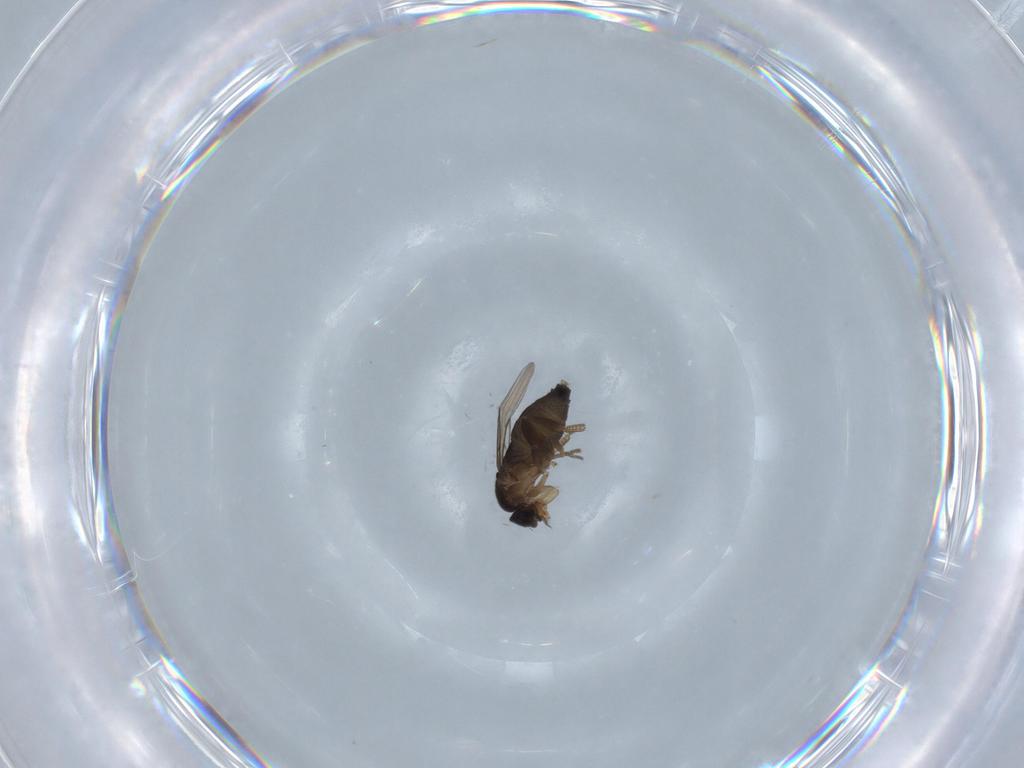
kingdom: Animalia
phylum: Arthropoda
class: Insecta
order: Diptera
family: Phoridae
